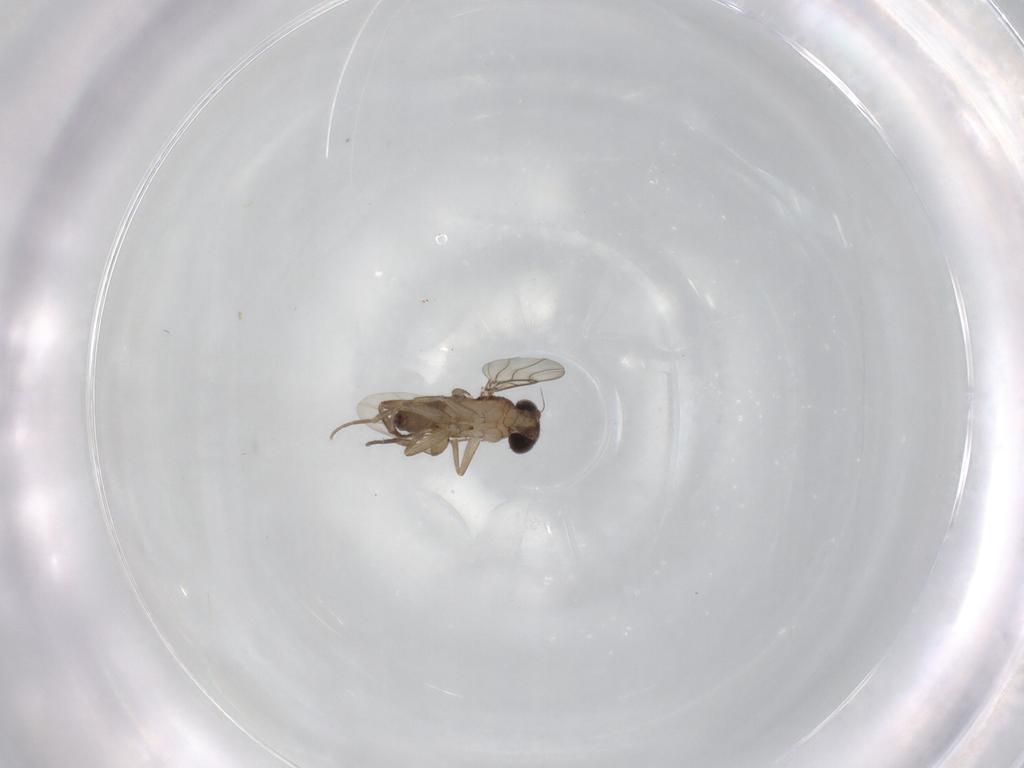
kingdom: Animalia
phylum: Arthropoda
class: Insecta
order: Diptera
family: Phoridae
